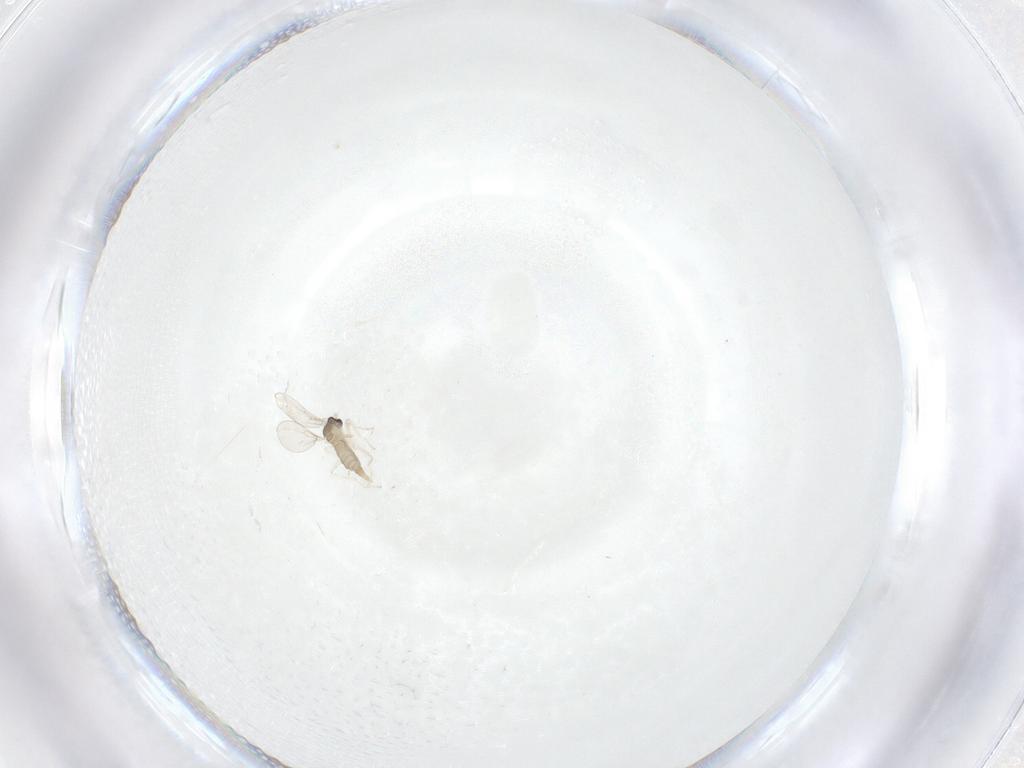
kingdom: Animalia
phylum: Arthropoda
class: Insecta
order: Diptera
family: Cecidomyiidae
